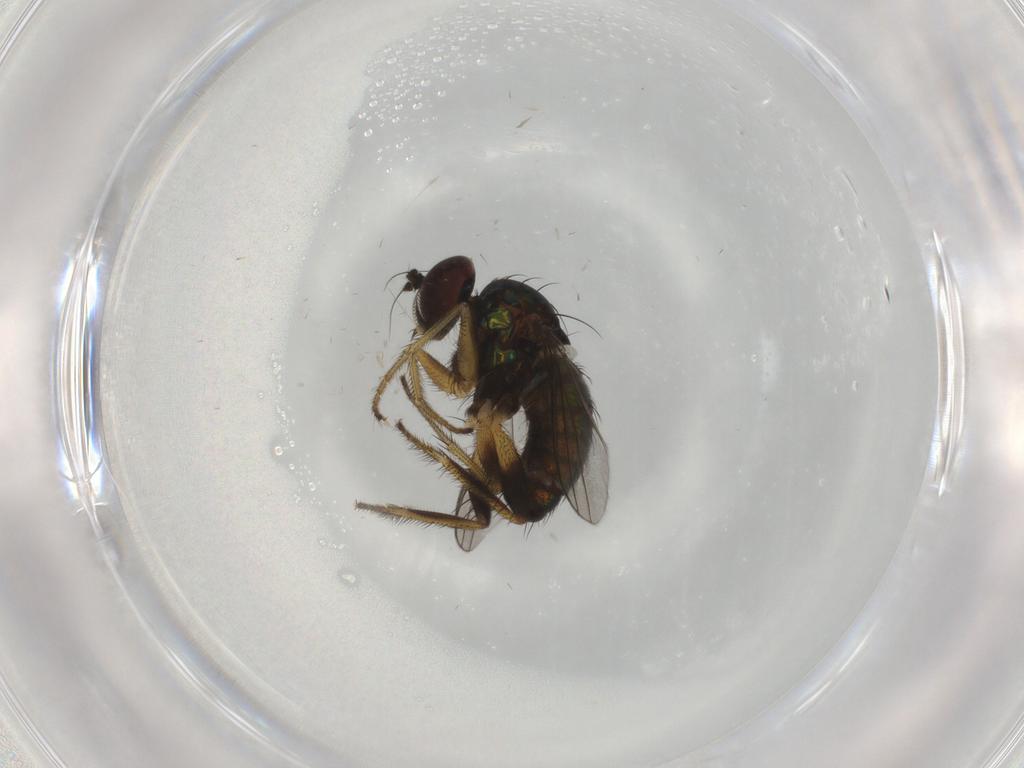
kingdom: Animalia
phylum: Arthropoda
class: Insecta
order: Diptera
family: Dolichopodidae
